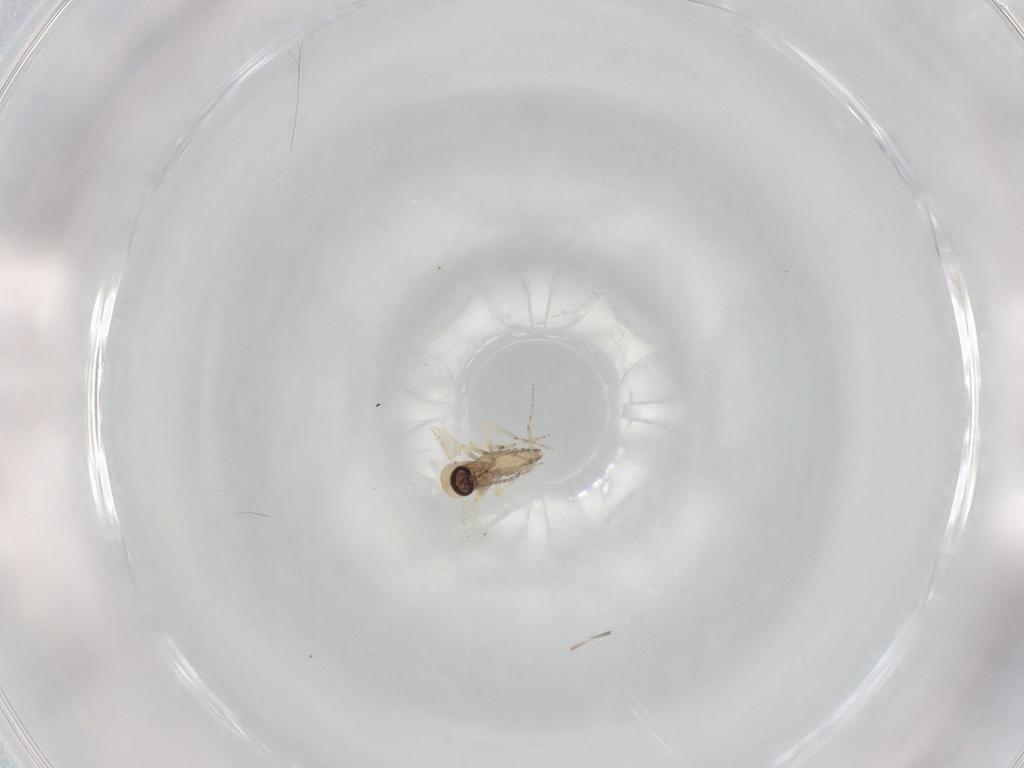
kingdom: Animalia
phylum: Arthropoda
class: Insecta
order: Diptera
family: Ceratopogonidae
